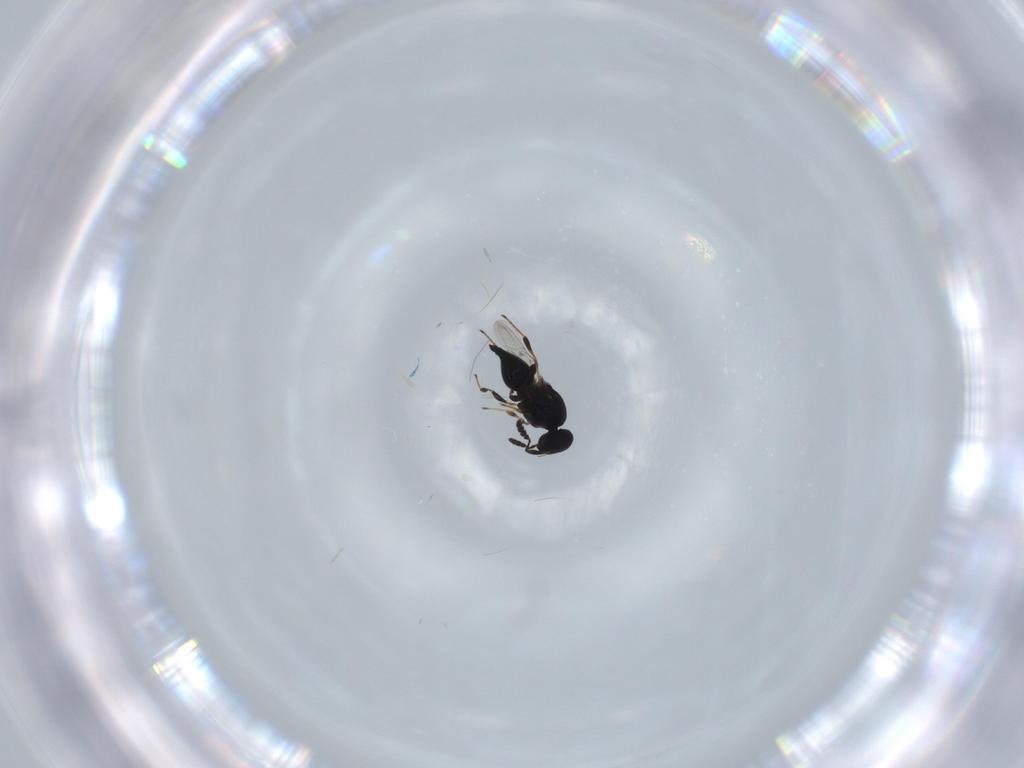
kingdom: Animalia
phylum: Arthropoda
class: Insecta
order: Hymenoptera
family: Platygastridae
